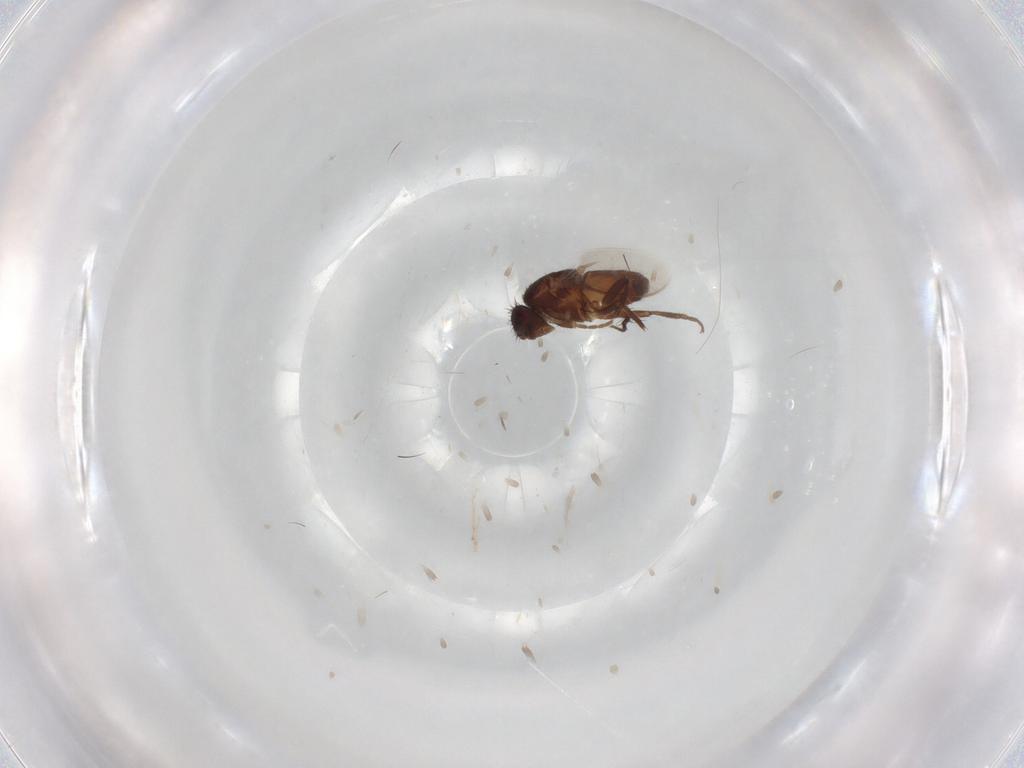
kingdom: Animalia
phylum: Arthropoda
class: Insecta
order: Diptera
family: Sphaeroceridae
